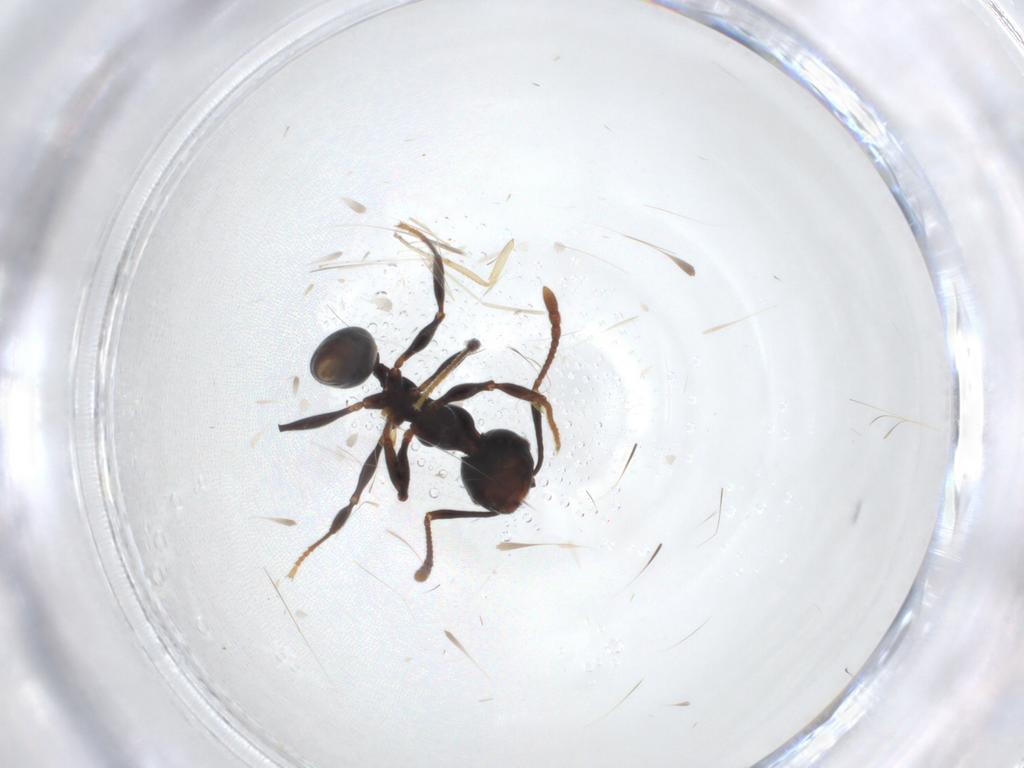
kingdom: Animalia
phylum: Arthropoda
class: Insecta
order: Hymenoptera
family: Formicidae
